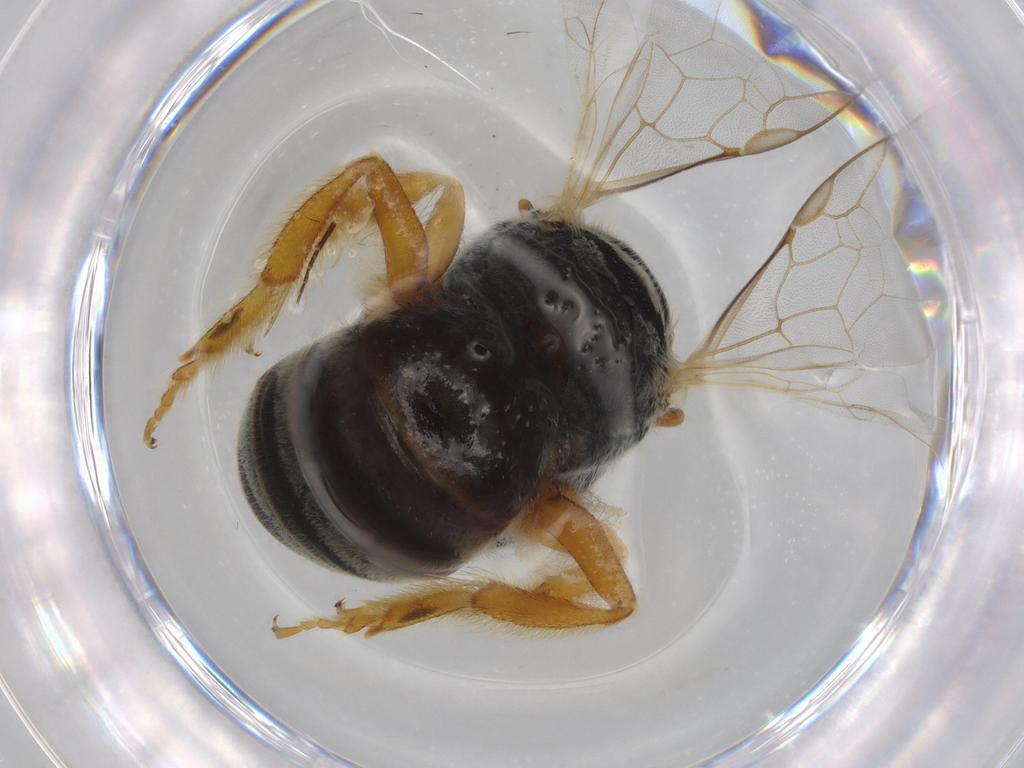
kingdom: Animalia
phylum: Arthropoda
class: Insecta
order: Hymenoptera
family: Halictidae
